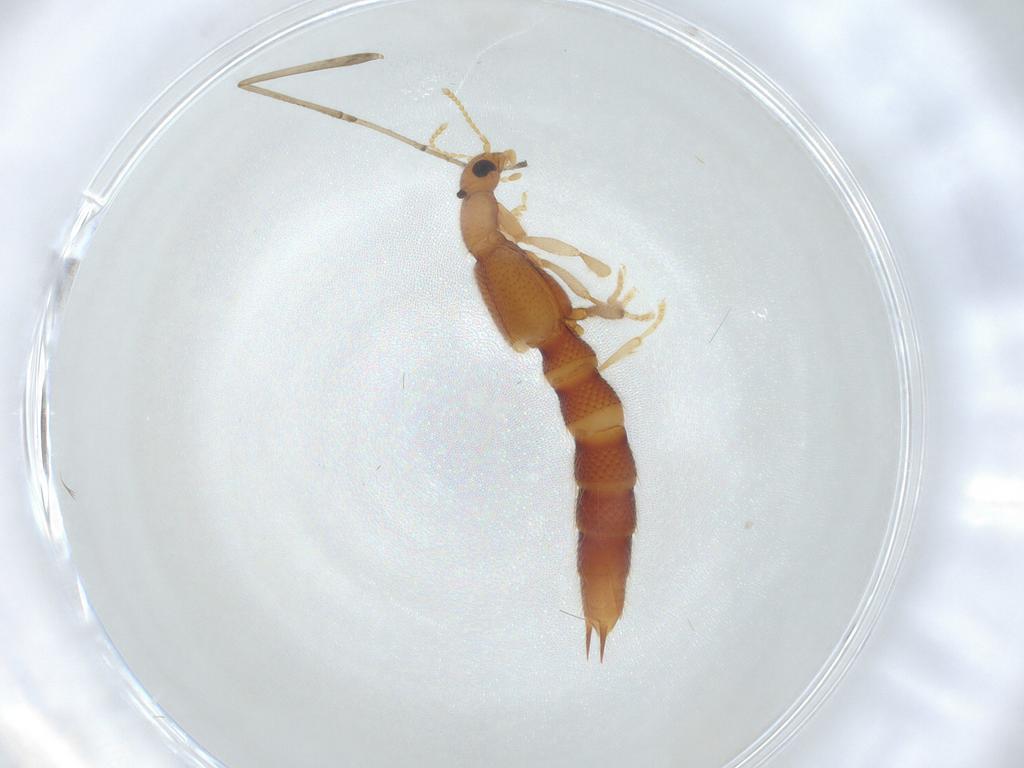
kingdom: Animalia
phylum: Arthropoda
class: Insecta
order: Coleoptera
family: Staphylinidae
